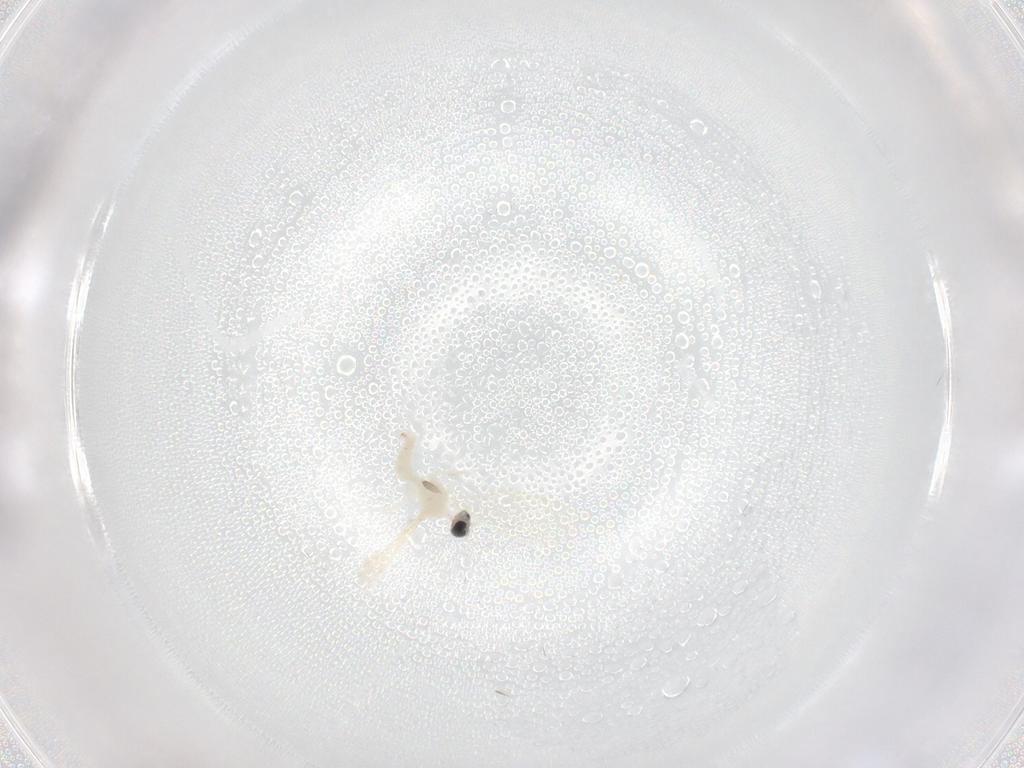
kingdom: Animalia
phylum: Arthropoda
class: Insecta
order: Diptera
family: Cecidomyiidae
